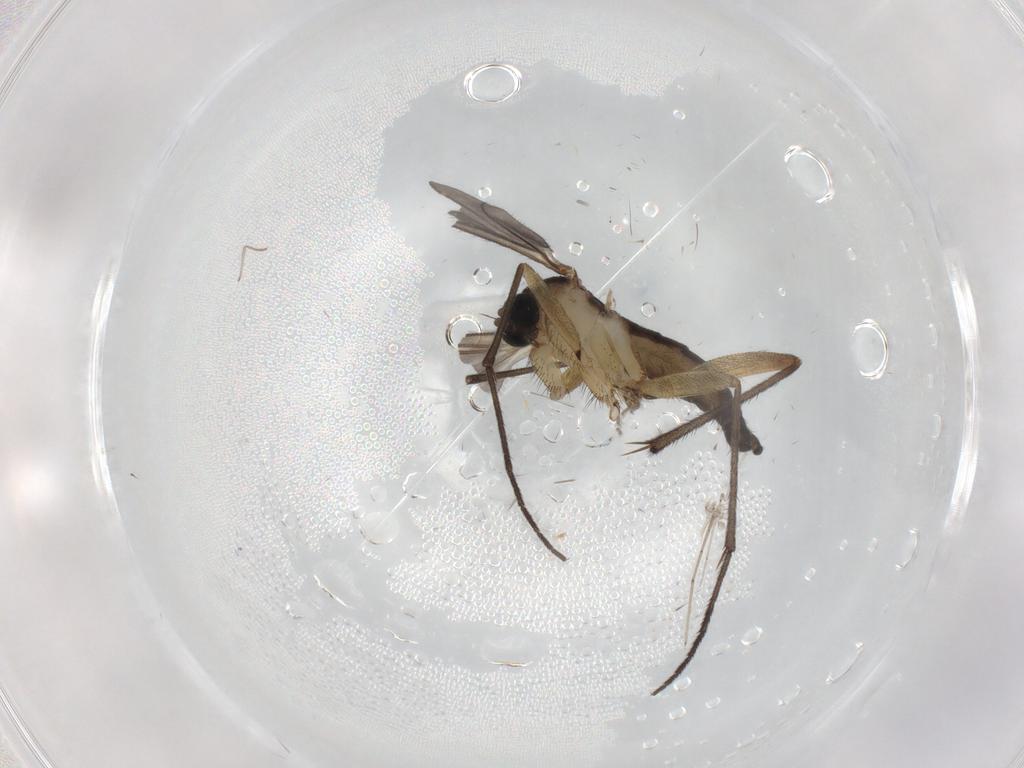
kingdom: Animalia
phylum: Arthropoda
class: Insecta
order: Diptera
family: Sciaridae
